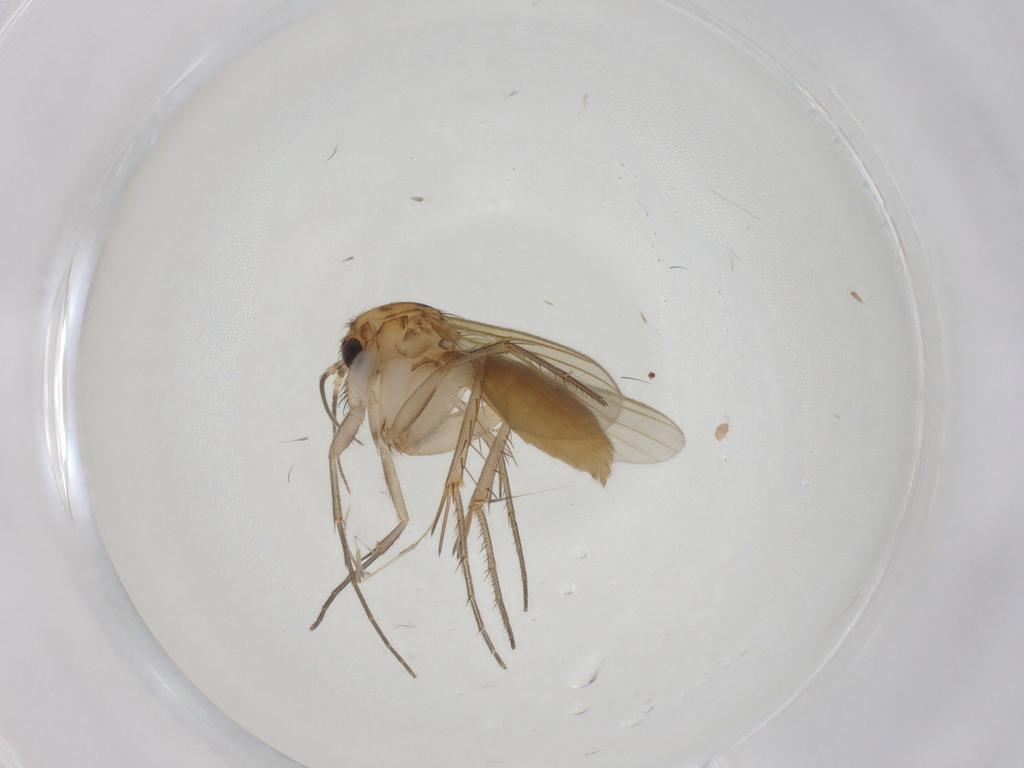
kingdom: Animalia
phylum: Arthropoda
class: Insecta
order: Diptera
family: Mycetophilidae
